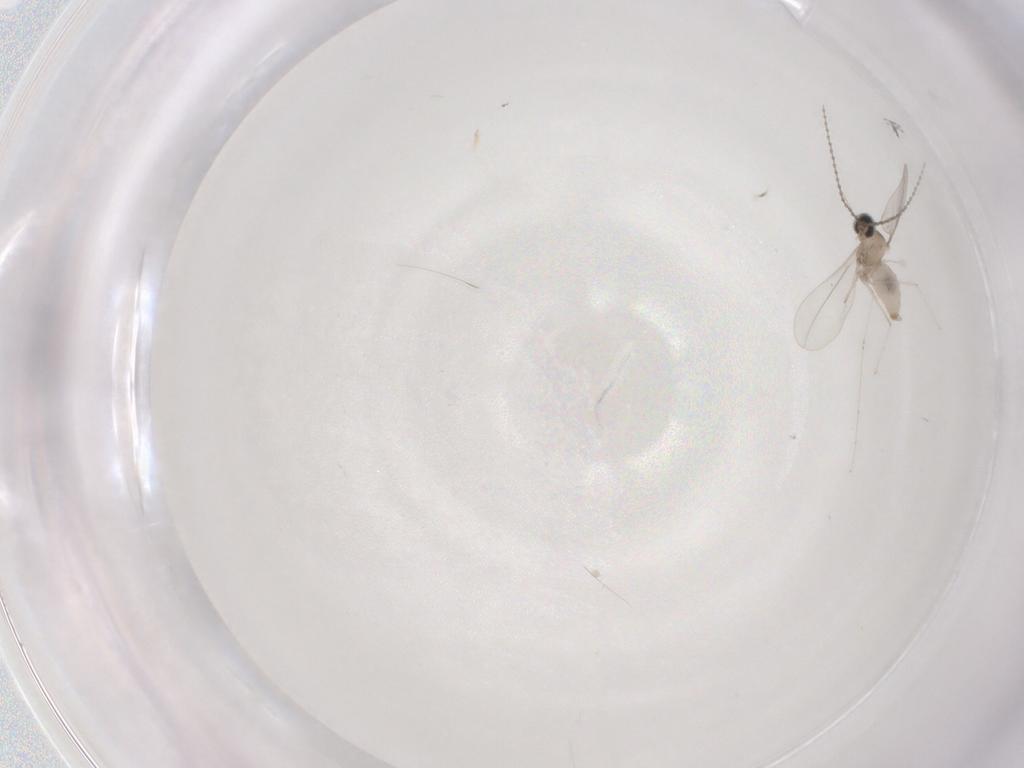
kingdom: Animalia
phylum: Arthropoda
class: Insecta
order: Diptera
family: Cecidomyiidae
